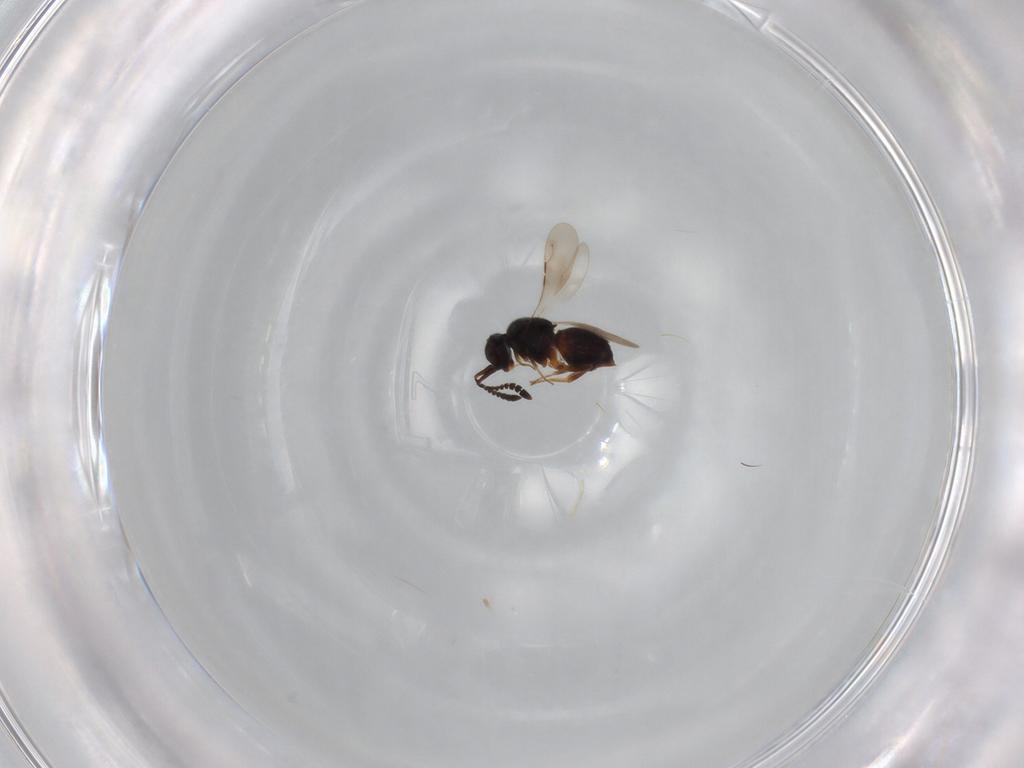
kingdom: Animalia
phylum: Arthropoda
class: Insecta
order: Hymenoptera
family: Ceraphronidae
